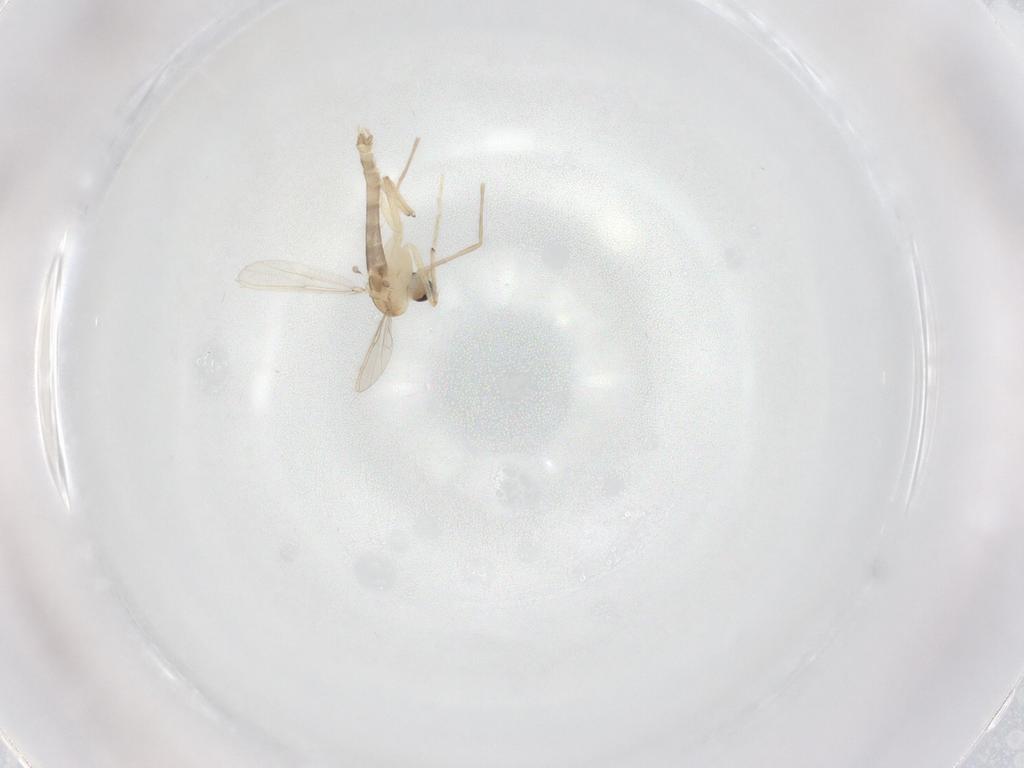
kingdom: Animalia
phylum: Arthropoda
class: Insecta
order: Diptera
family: Chironomidae
